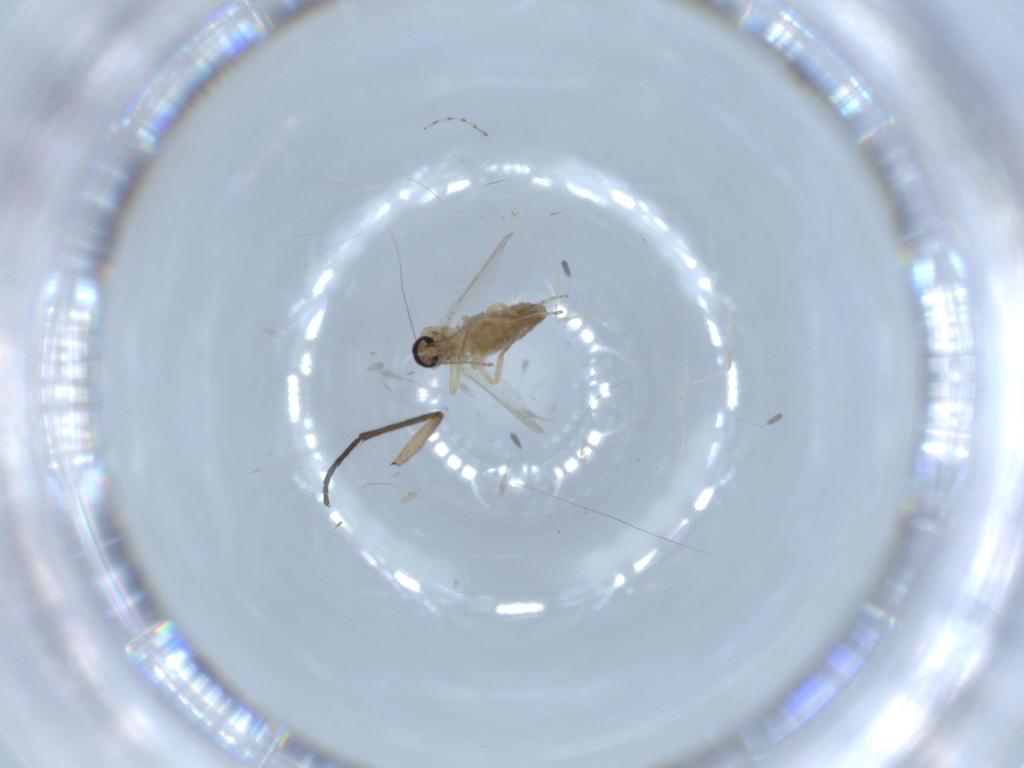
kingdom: Animalia
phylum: Arthropoda
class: Insecta
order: Diptera
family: Ceratopogonidae
